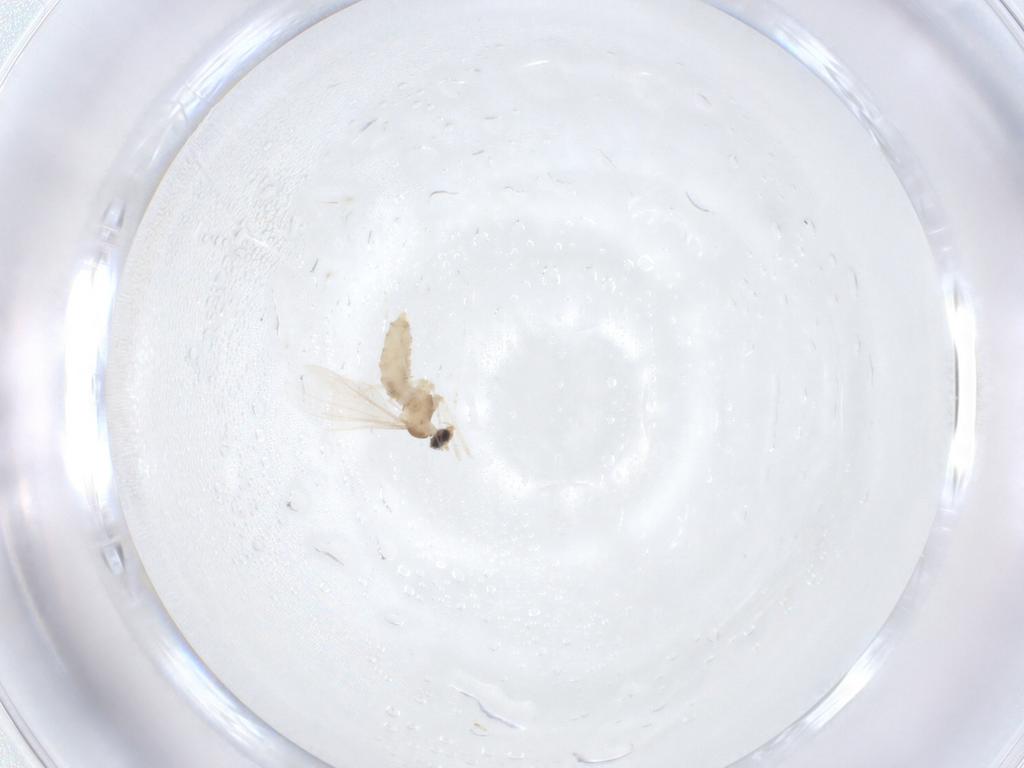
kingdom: Animalia
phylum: Arthropoda
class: Insecta
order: Diptera
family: Cecidomyiidae
